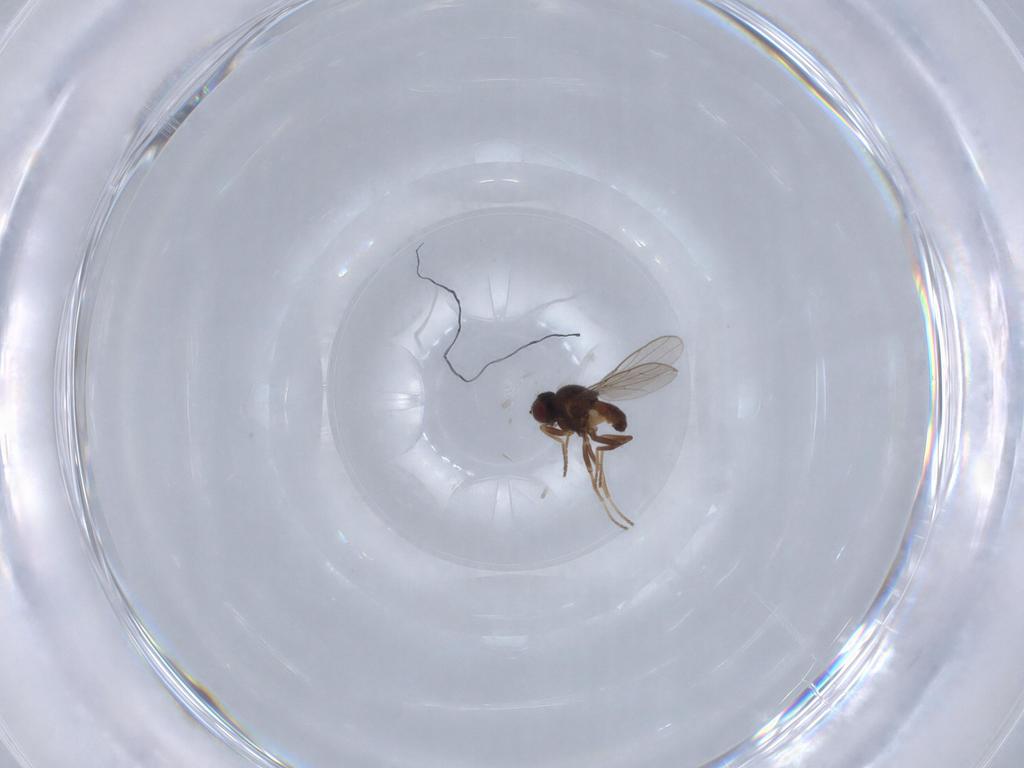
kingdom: Animalia
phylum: Arthropoda
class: Insecta
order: Diptera
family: Chloropidae
